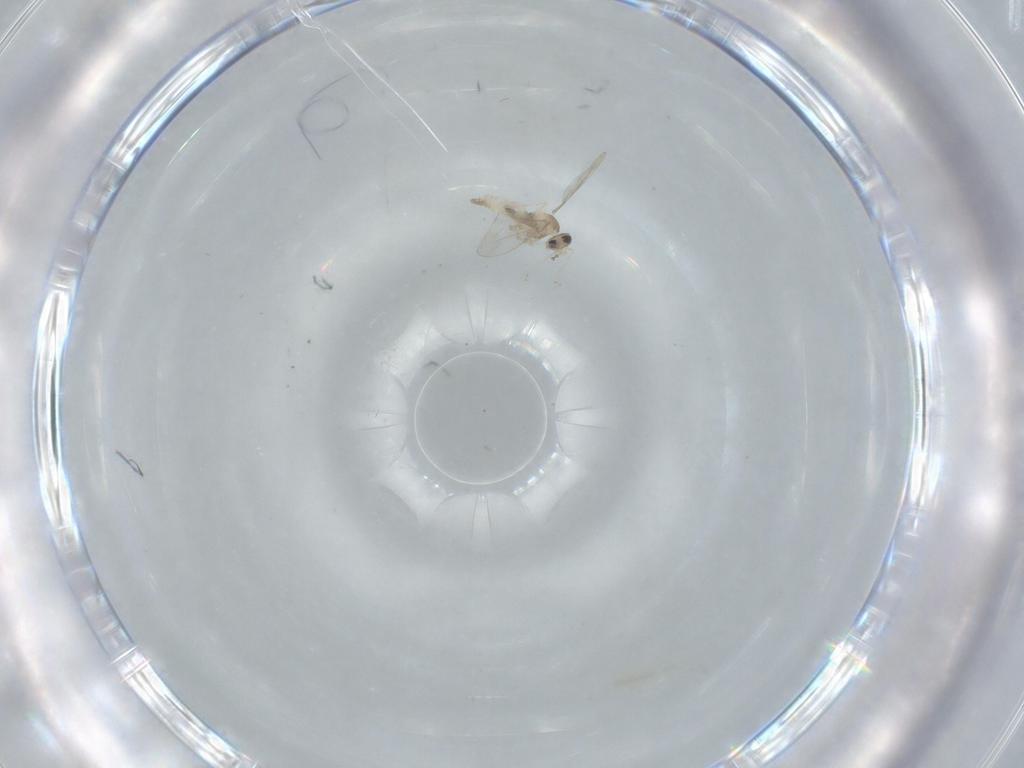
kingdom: Animalia
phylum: Arthropoda
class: Insecta
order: Diptera
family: Cecidomyiidae
